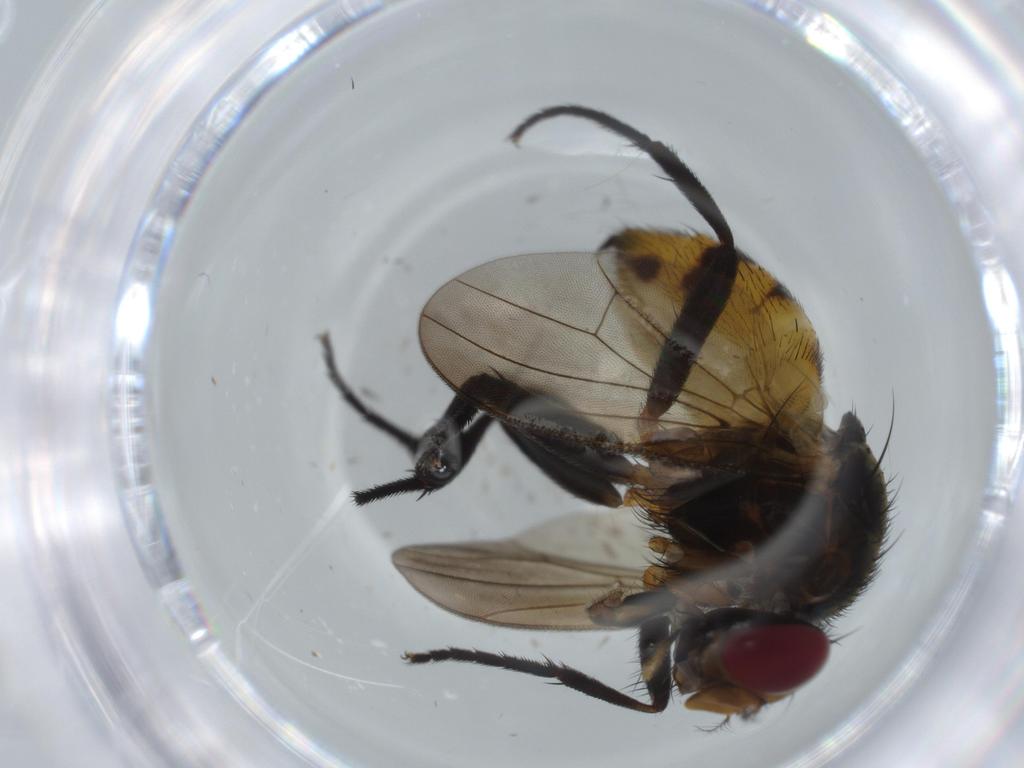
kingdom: Animalia
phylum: Arthropoda
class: Insecta
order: Diptera
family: Anthomyiidae
